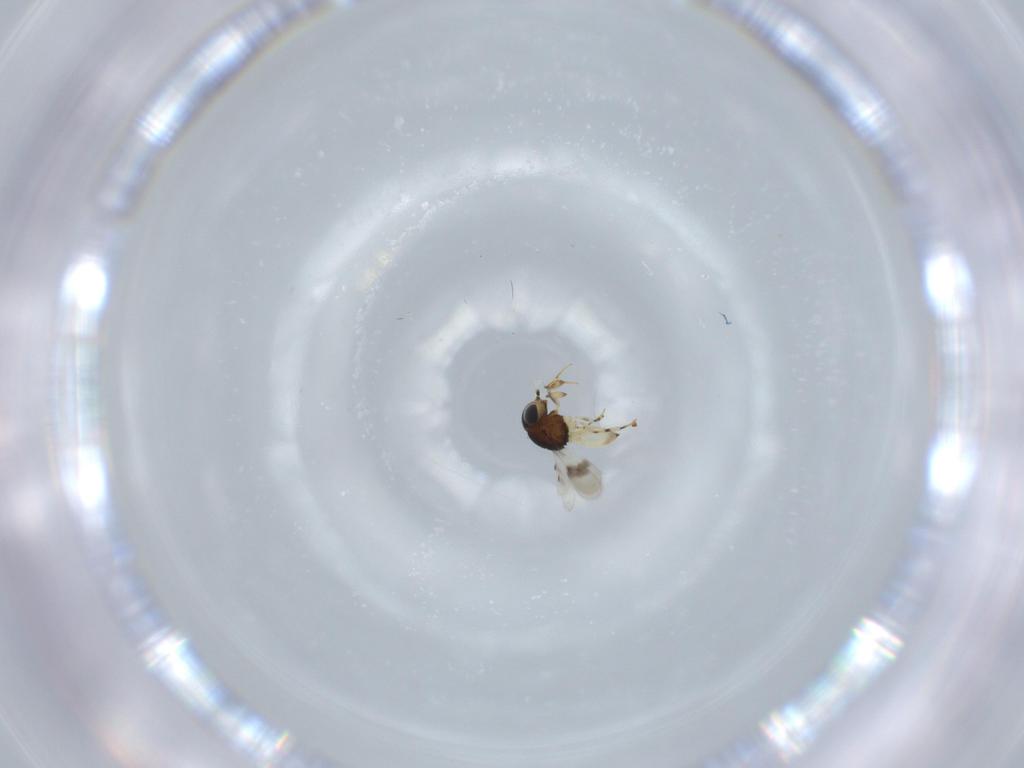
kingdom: Animalia
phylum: Arthropoda
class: Insecta
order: Hymenoptera
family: Scelionidae
